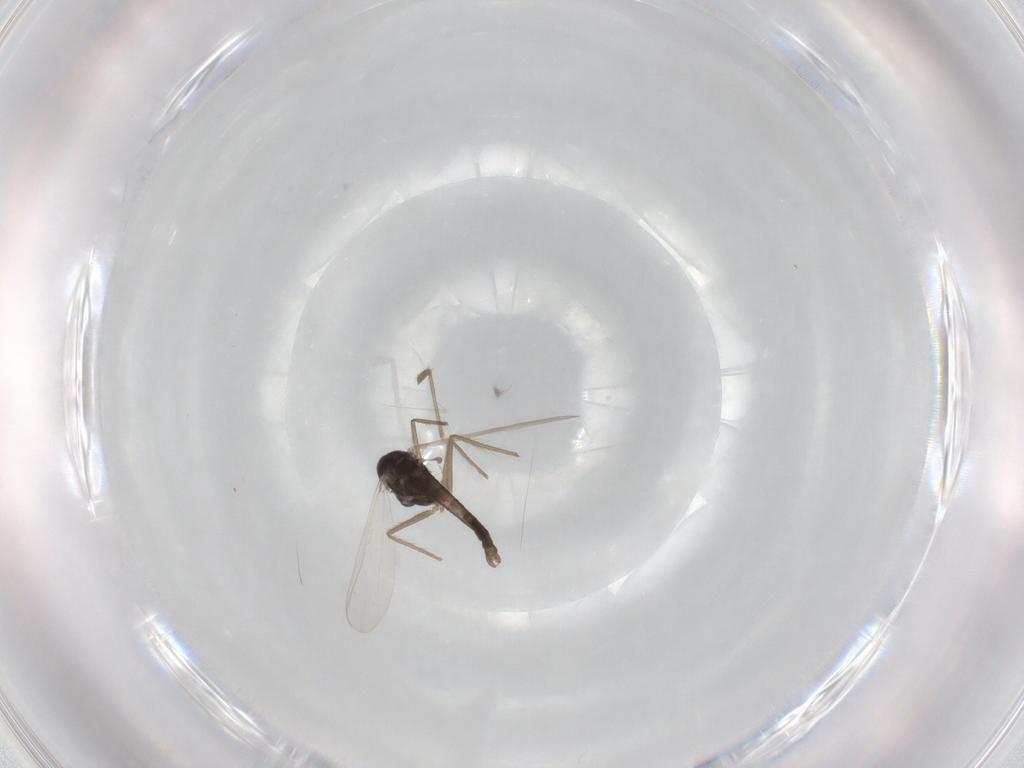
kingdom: Animalia
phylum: Arthropoda
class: Insecta
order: Diptera
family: Chironomidae
